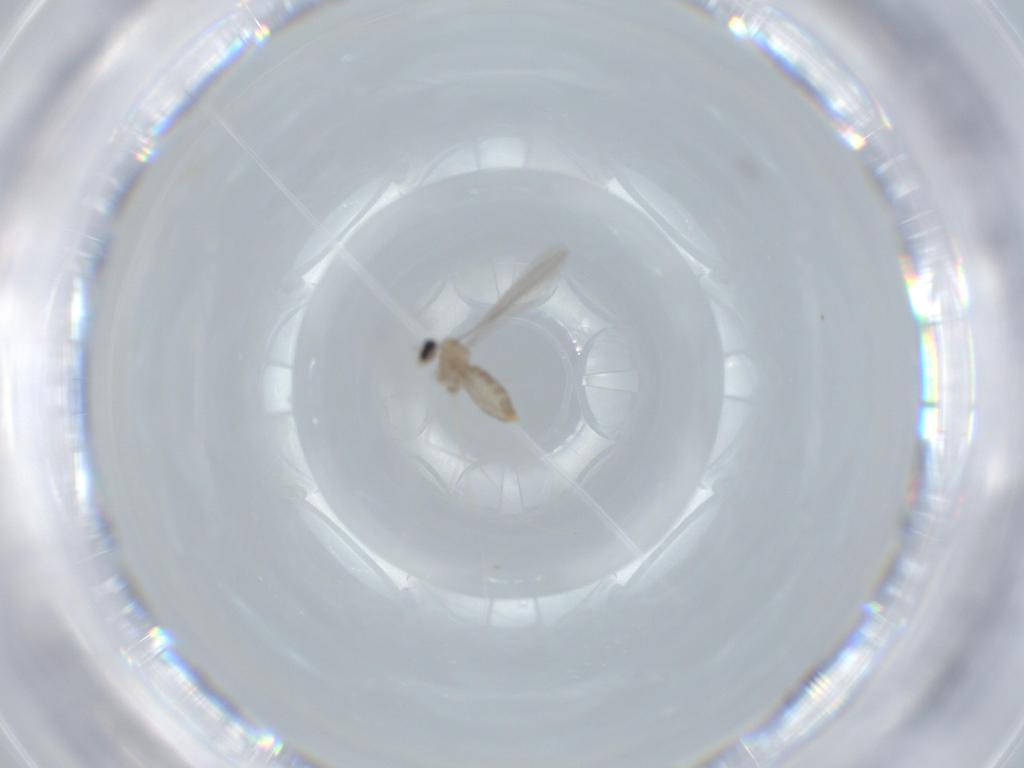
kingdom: Animalia
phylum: Arthropoda
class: Insecta
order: Diptera
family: Cecidomyiidae
